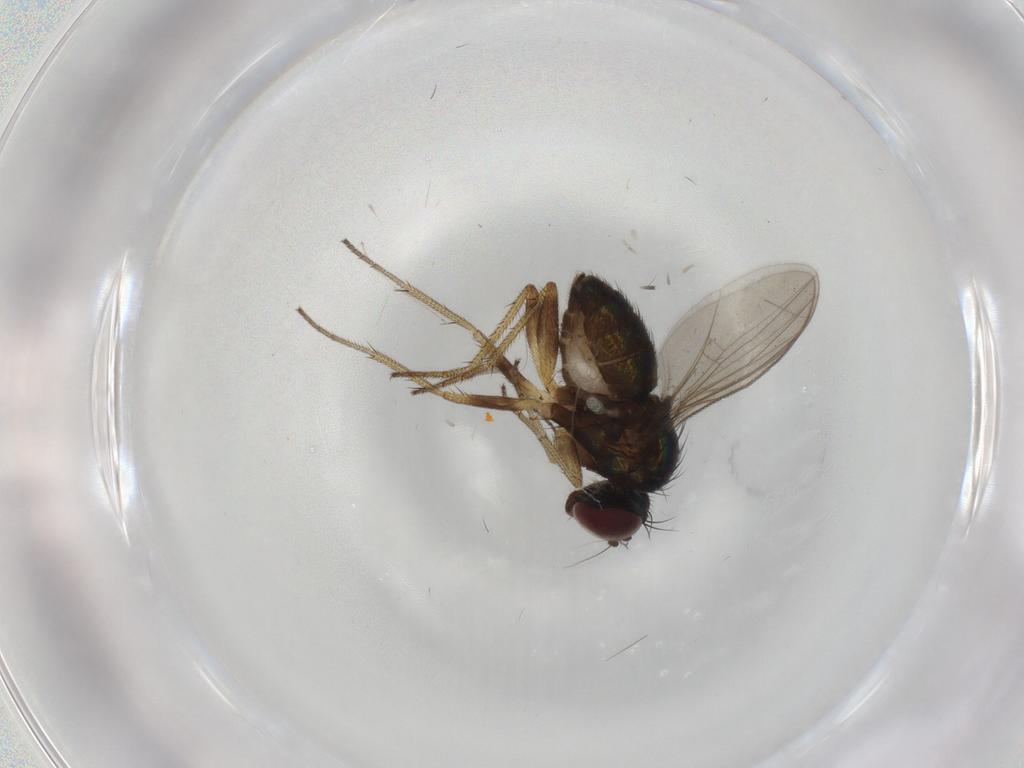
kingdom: Animalia
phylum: Arthropoda
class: Insecta
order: Diptera
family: Sciaridae
